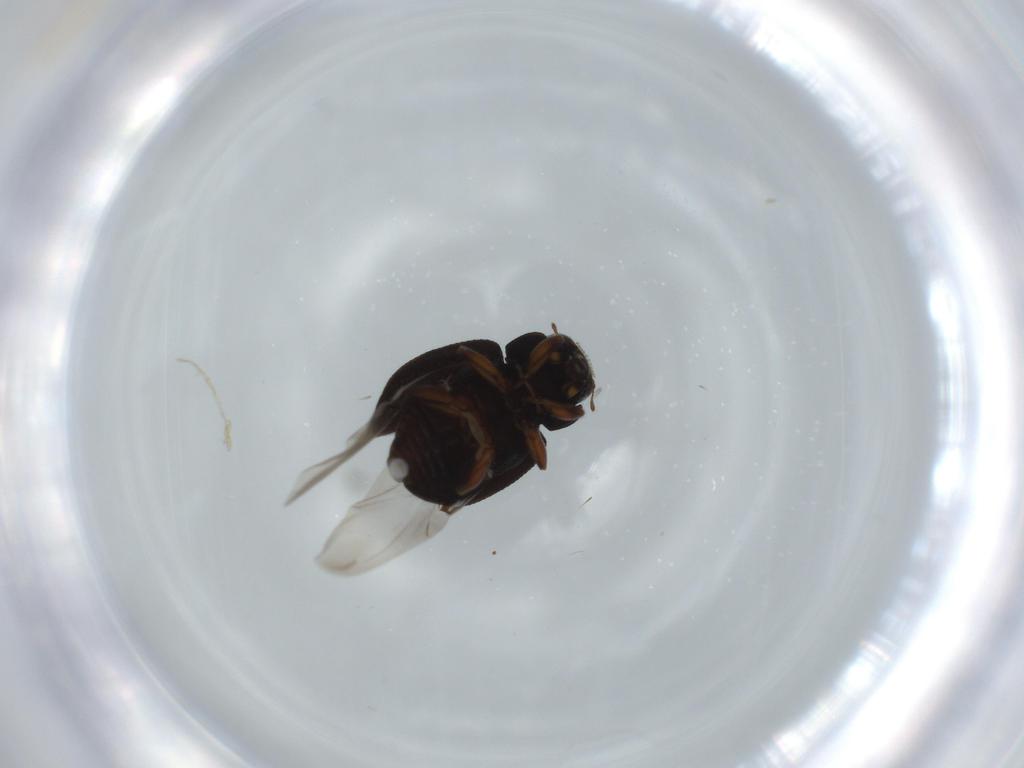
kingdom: Animalia
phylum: Arthropoda
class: Insecta
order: Coleoptera
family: Coccinellidae
